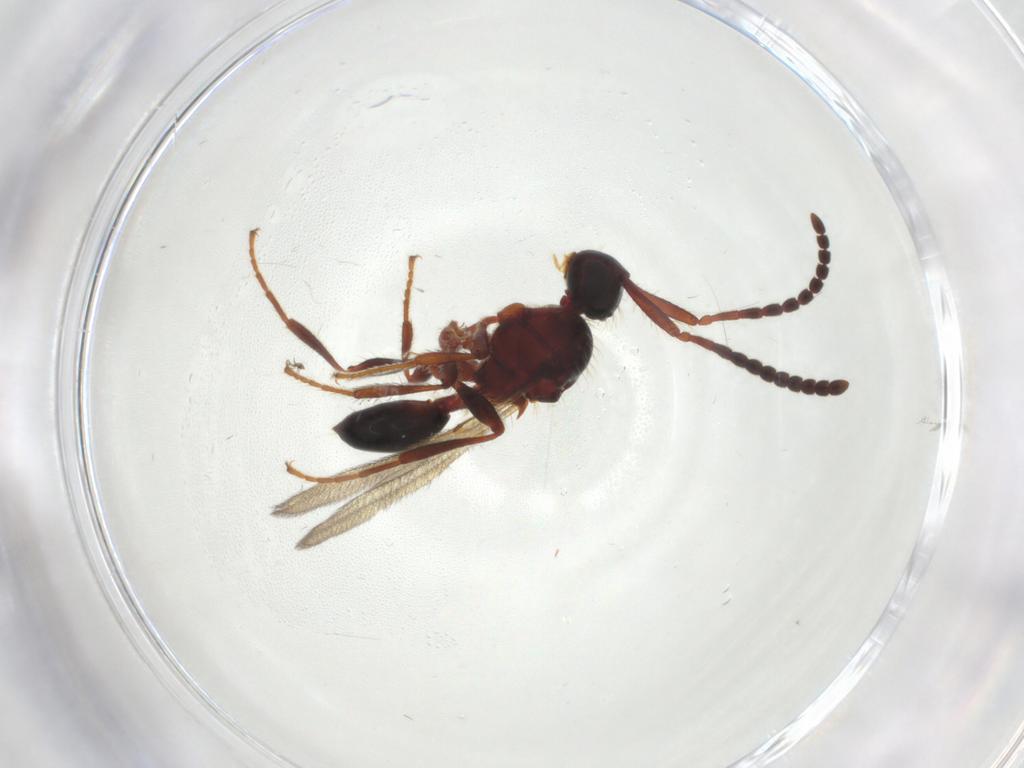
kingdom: Animalia
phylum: Arthropoda
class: Insecta
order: Hymenoptera
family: Diapriidae
